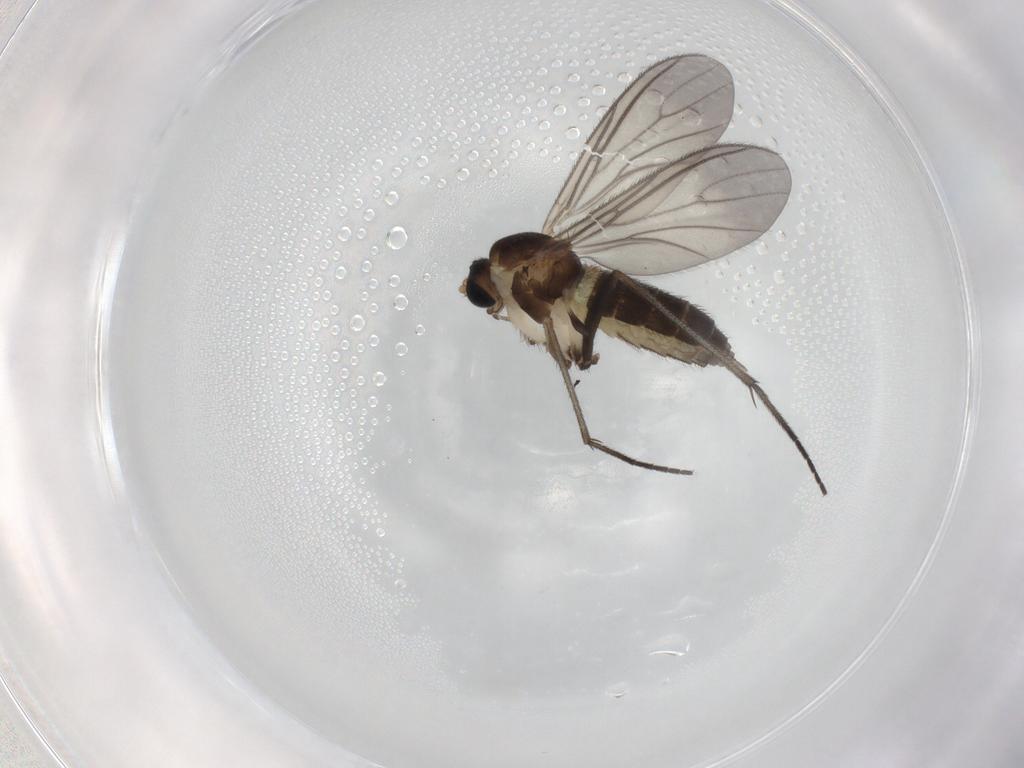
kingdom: Animalia
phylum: Arthropoda
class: Insecta
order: Diptera
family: Sciaridae
